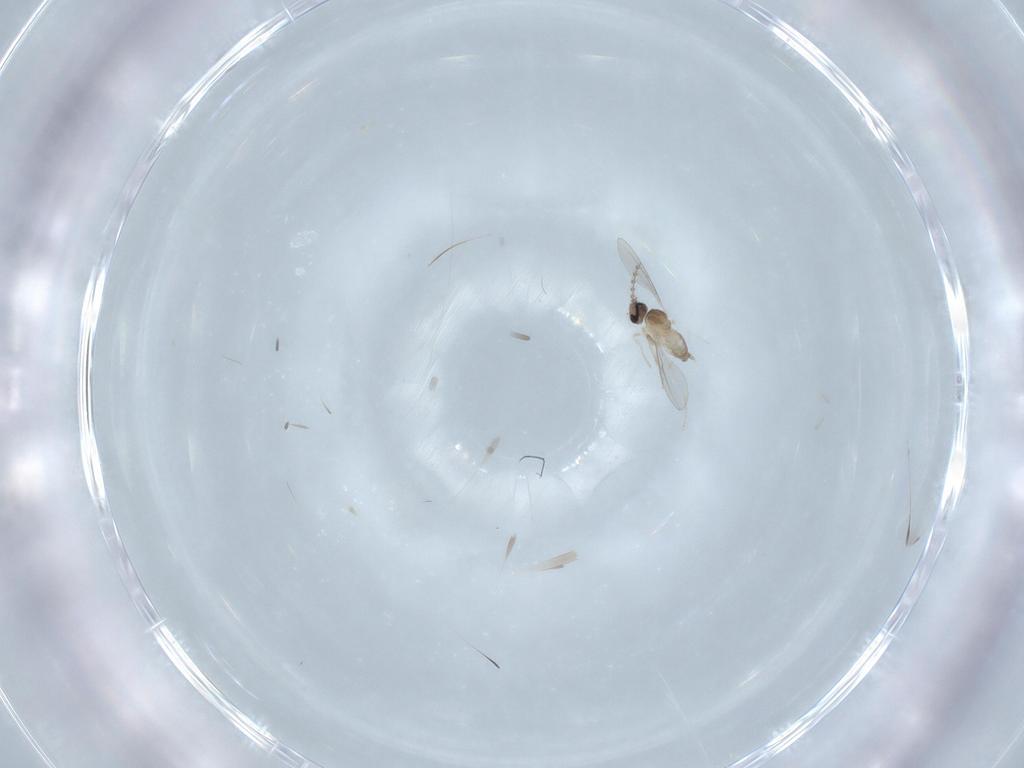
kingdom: Animalia
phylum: Arthropoda
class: Insecta
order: Diptera
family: Cecidomyiidae
